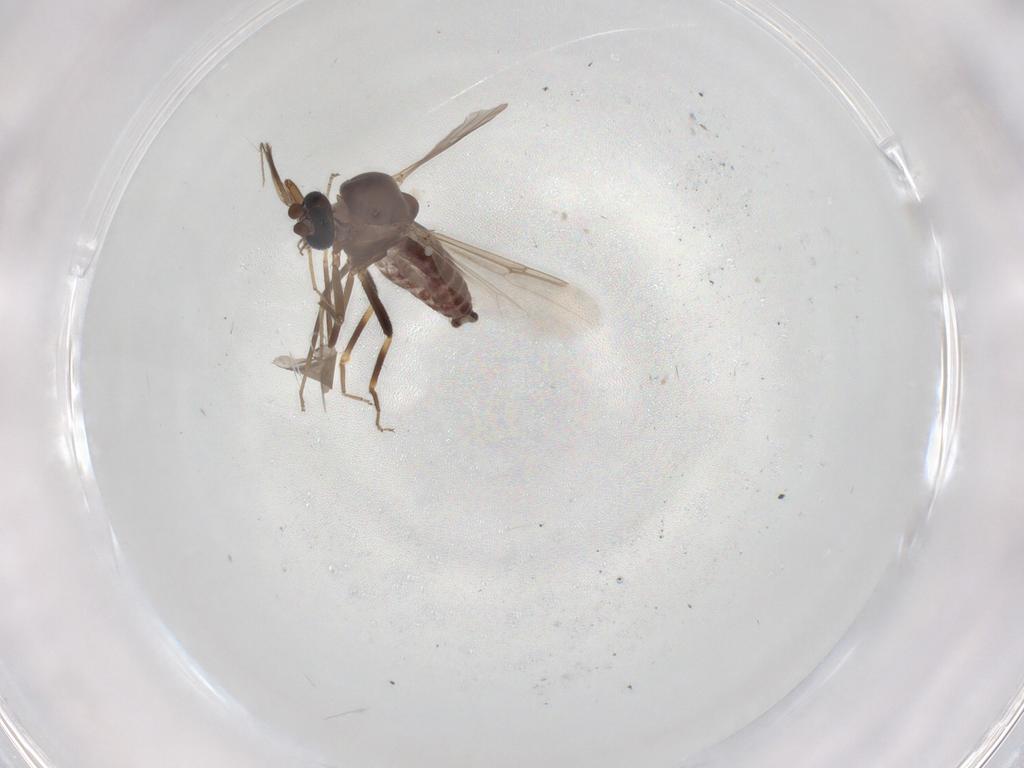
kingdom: Animalia
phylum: Arthropoda
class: Insecta
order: Diptera
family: Ceratopogonidae
